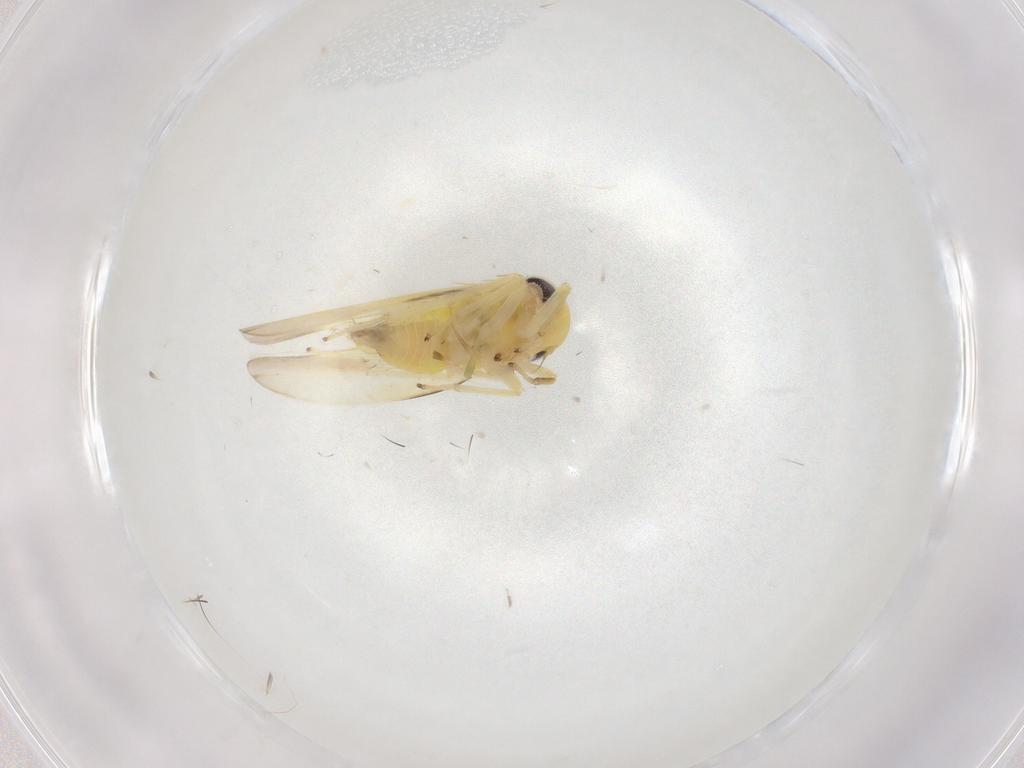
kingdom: Animalia
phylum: Arthropoda
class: Insecta
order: Hemiptera
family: Cicadellidae
